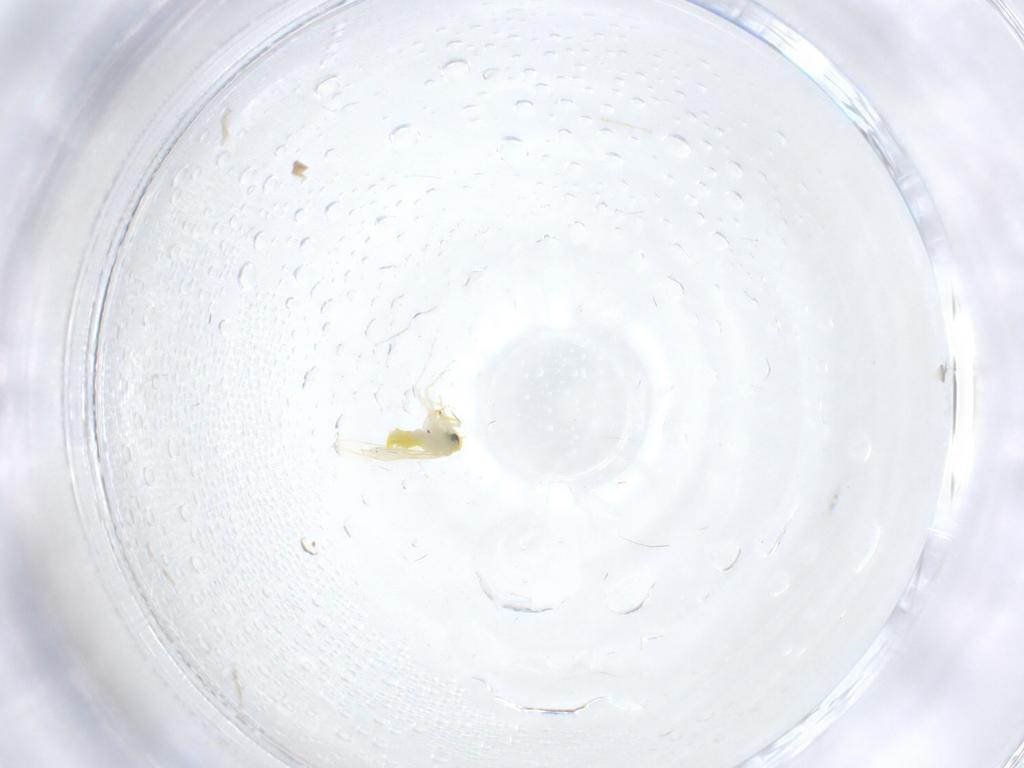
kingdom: Animalia
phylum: Arthropoda
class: Insecta
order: Hemiptera
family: Aleyrodidae
